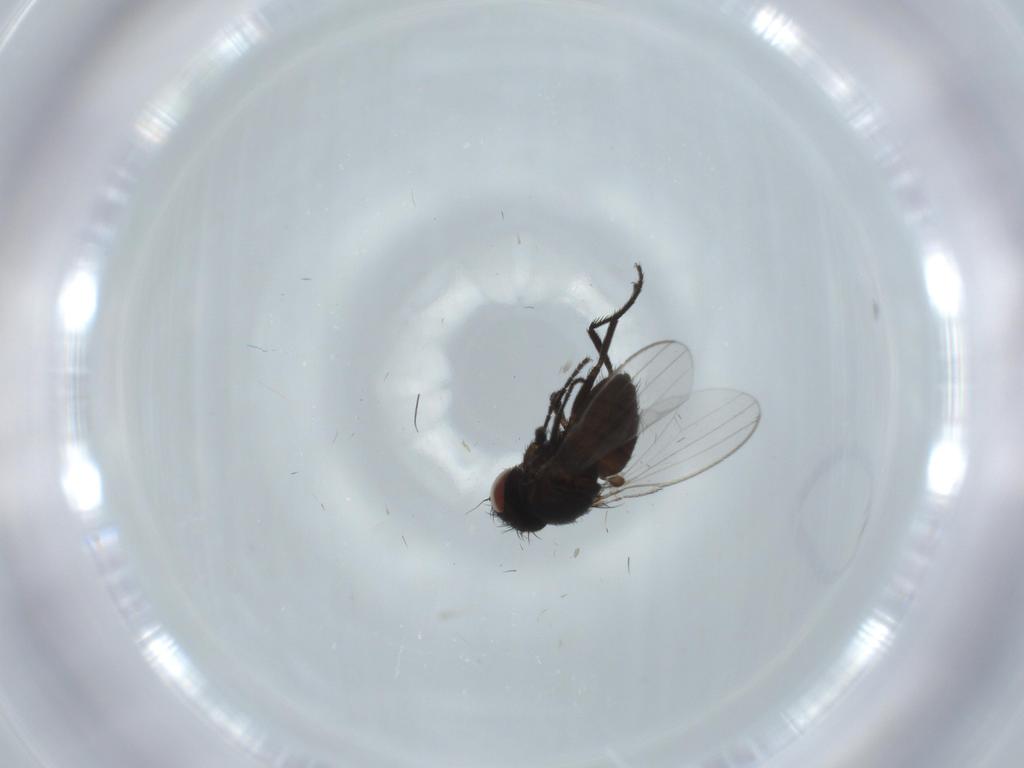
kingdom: Animalia
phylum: Arthropoda
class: Insecta
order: Diptera
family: Milichiidae
